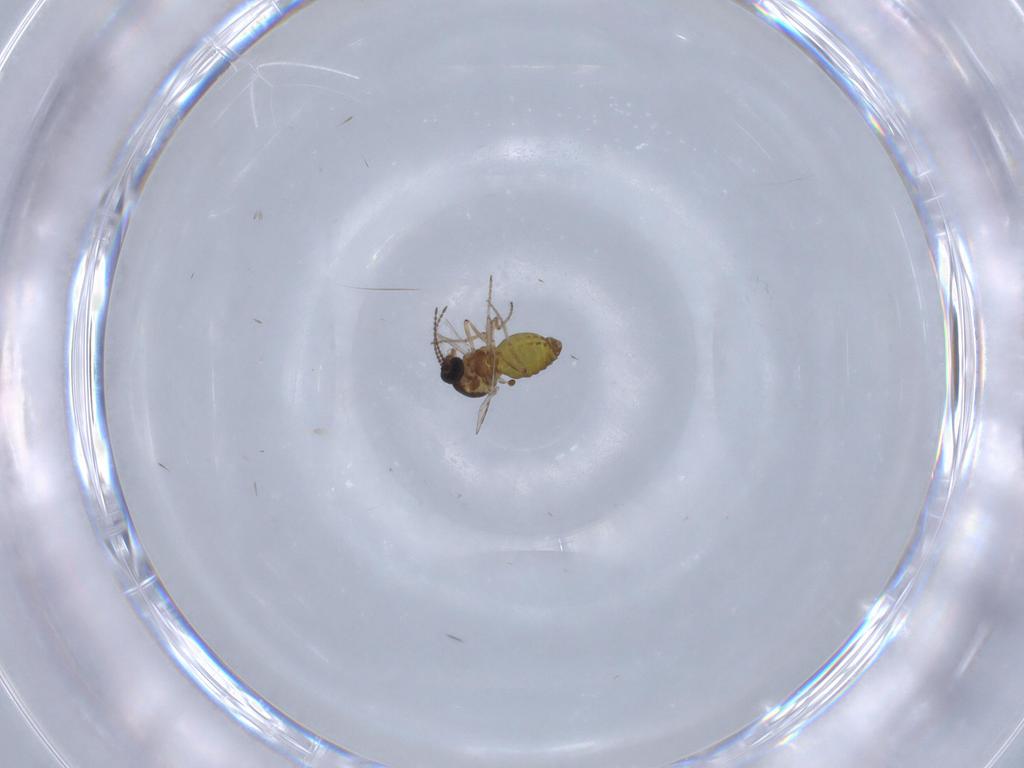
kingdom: Animalia
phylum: Arthropoda
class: Insecta
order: Diptera
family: Ceratopogonidae
